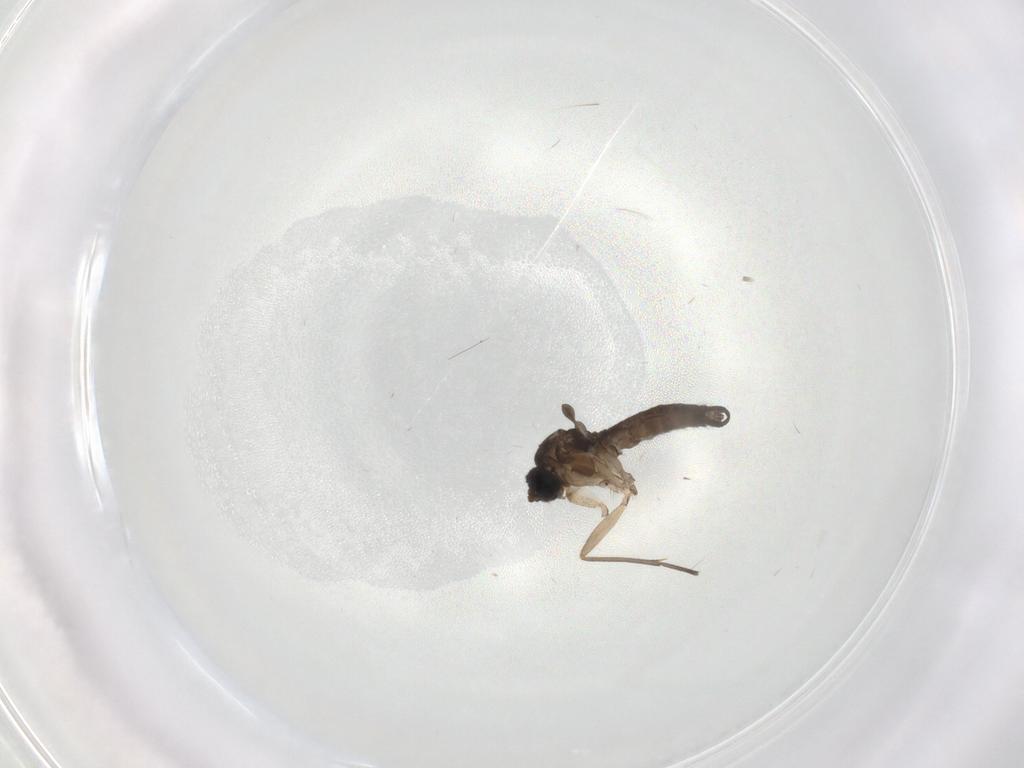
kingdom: Animalia
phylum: Arthropoda
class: Insecta
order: Diptera
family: Sciaridae
